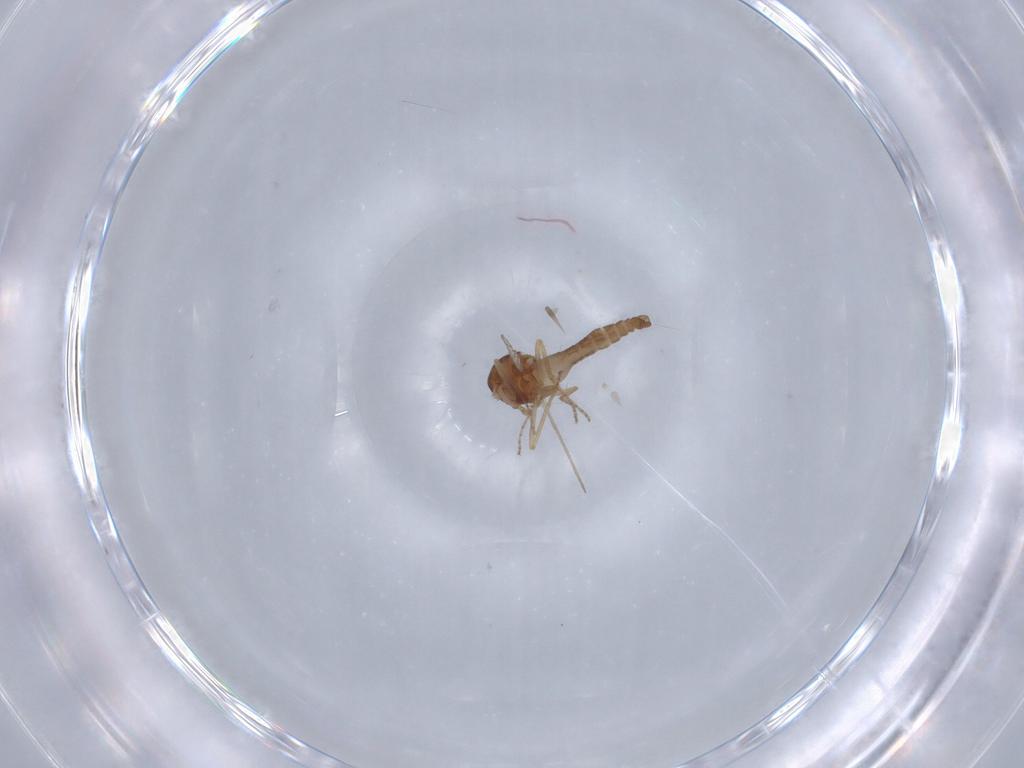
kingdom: Animalia
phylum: Arthropoda
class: Insecta
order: Diptera
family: Ceratopogonidae
